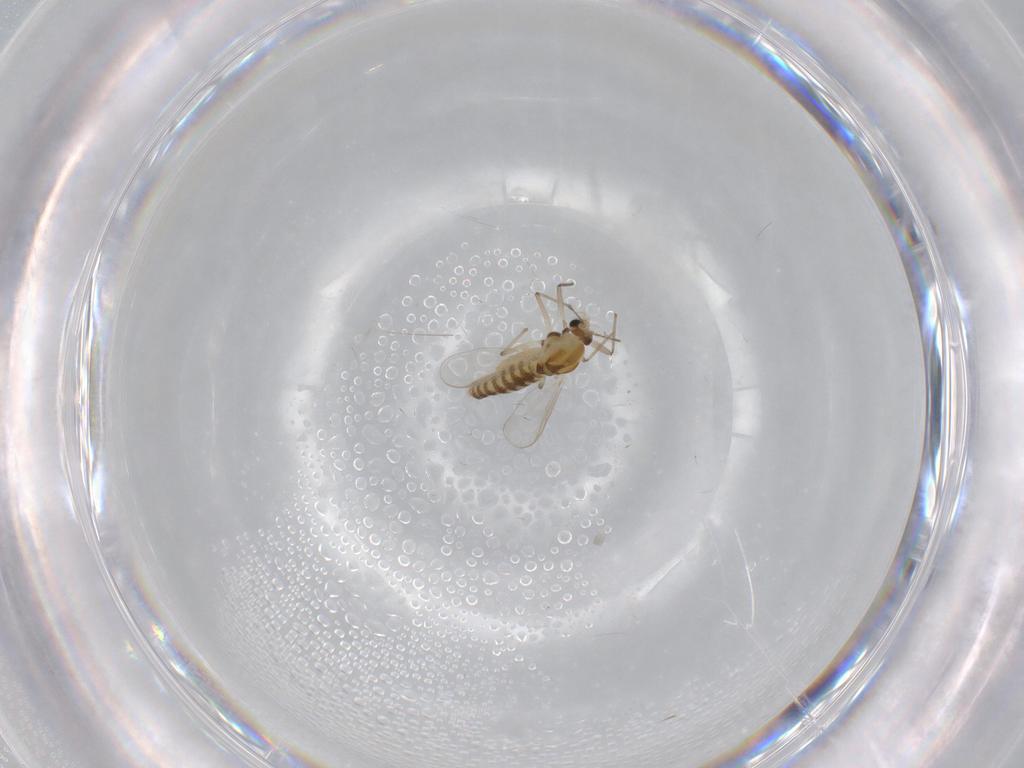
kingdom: Animalia
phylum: Arthropoda
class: Insecta
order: Diptera
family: Chironomidae
